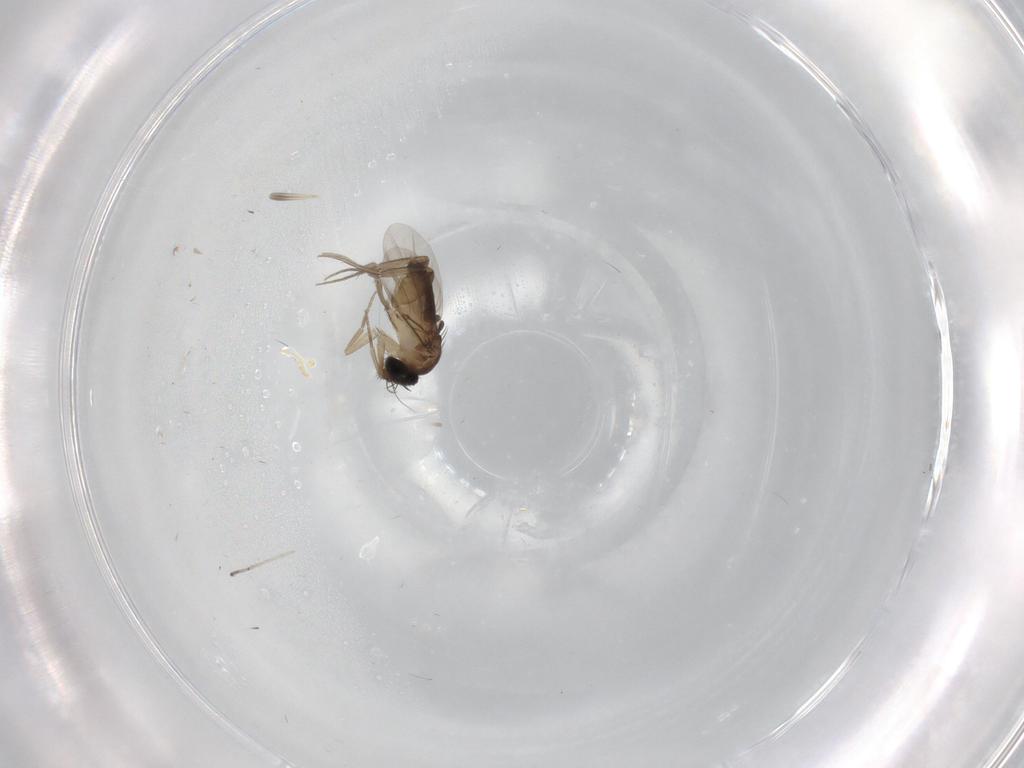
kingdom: Animalia
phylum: Arthropoda
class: Insecta
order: Diptera
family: Phoridae
